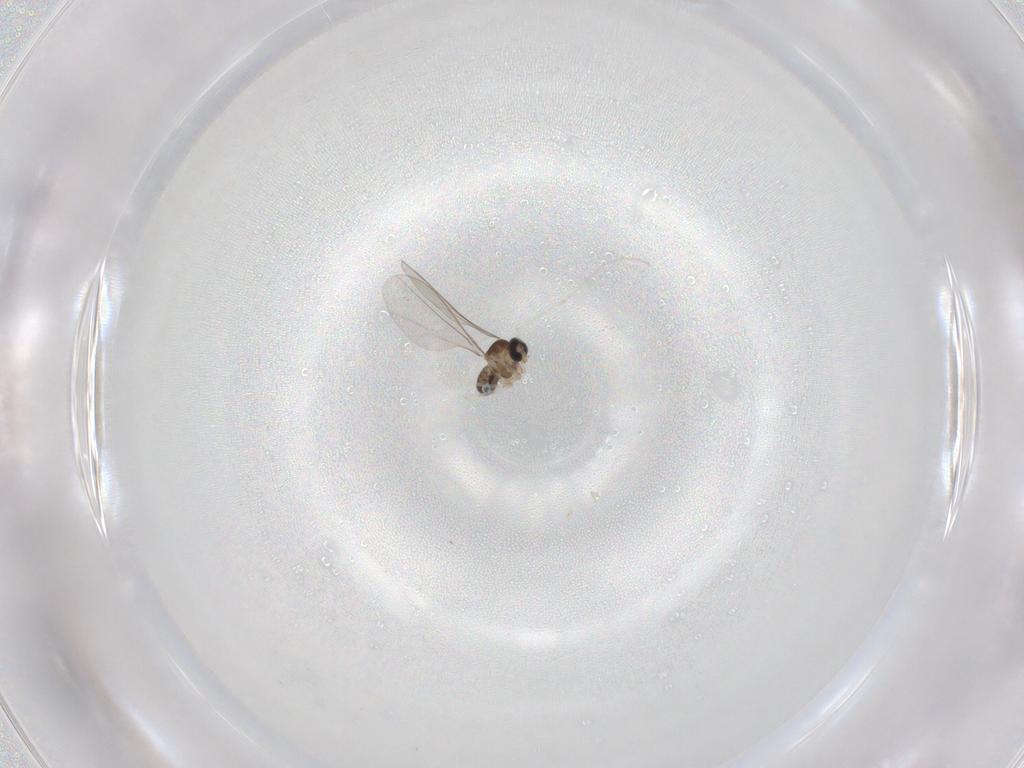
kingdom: Animalia
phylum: Arthropoda
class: Insecta
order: Diptera
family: Cecidomyiidae
